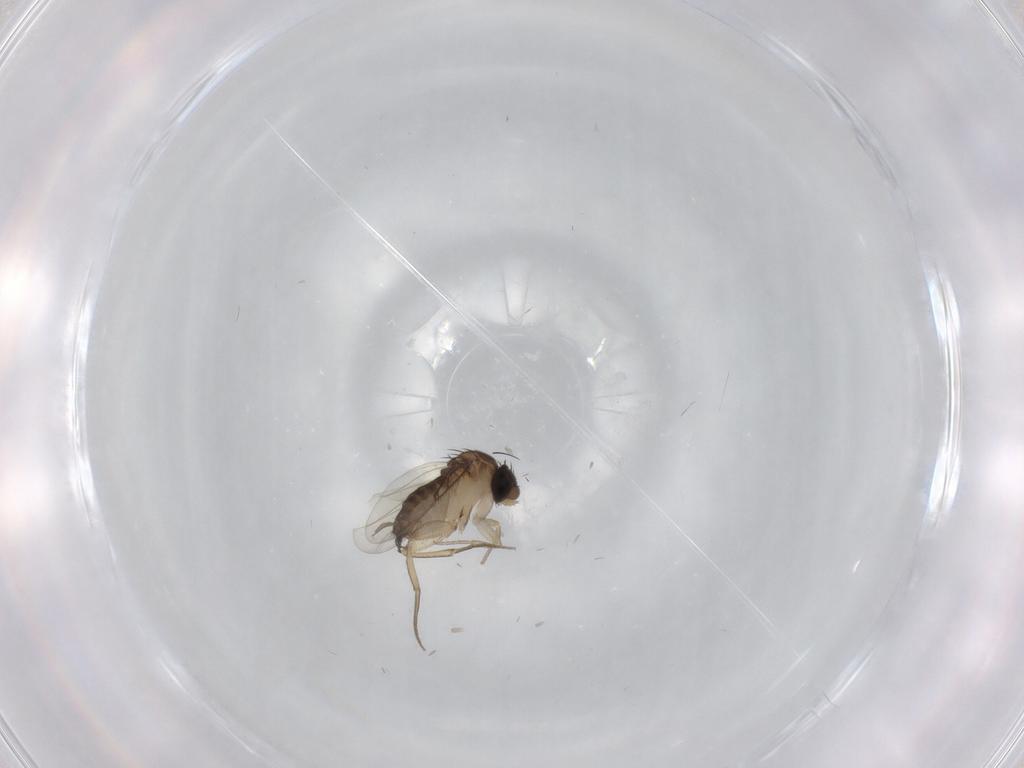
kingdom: Animalia
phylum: Arthropoda
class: Insecta
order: Diptera
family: Cecidomyiidae
